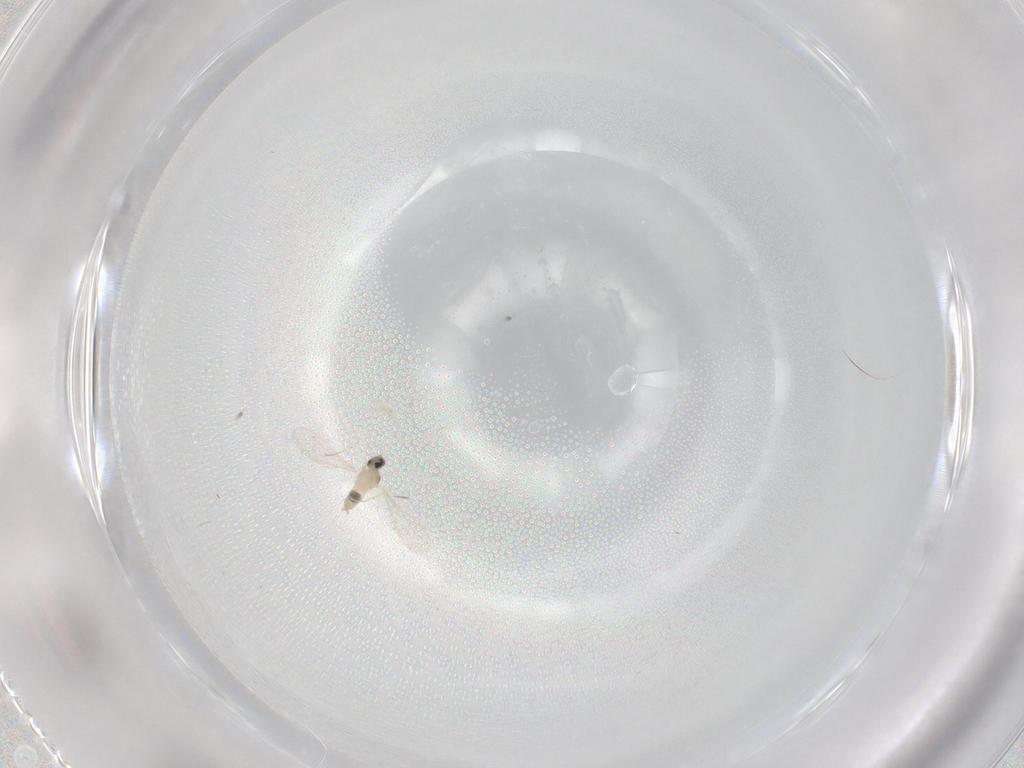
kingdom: Animalia
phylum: Arthropoda
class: Insecta
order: Diptera
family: Cecidomyiidae
